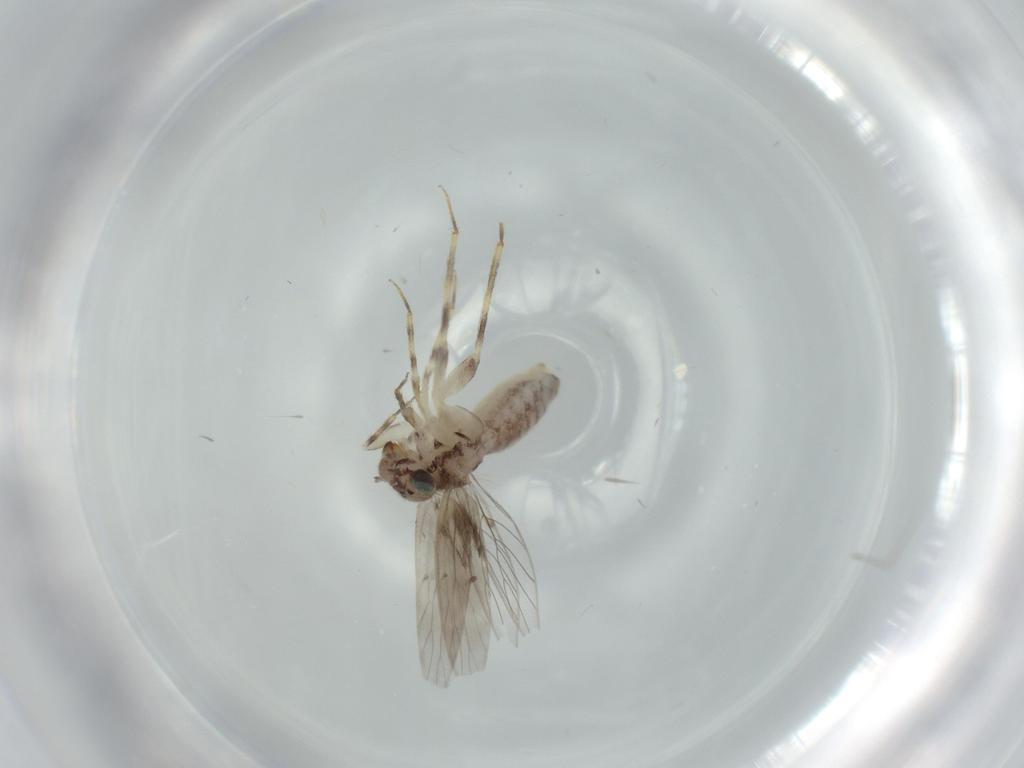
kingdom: Animalia
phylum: Arthropoda
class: Insecta
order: Psocodea
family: Lepidopsocidae
